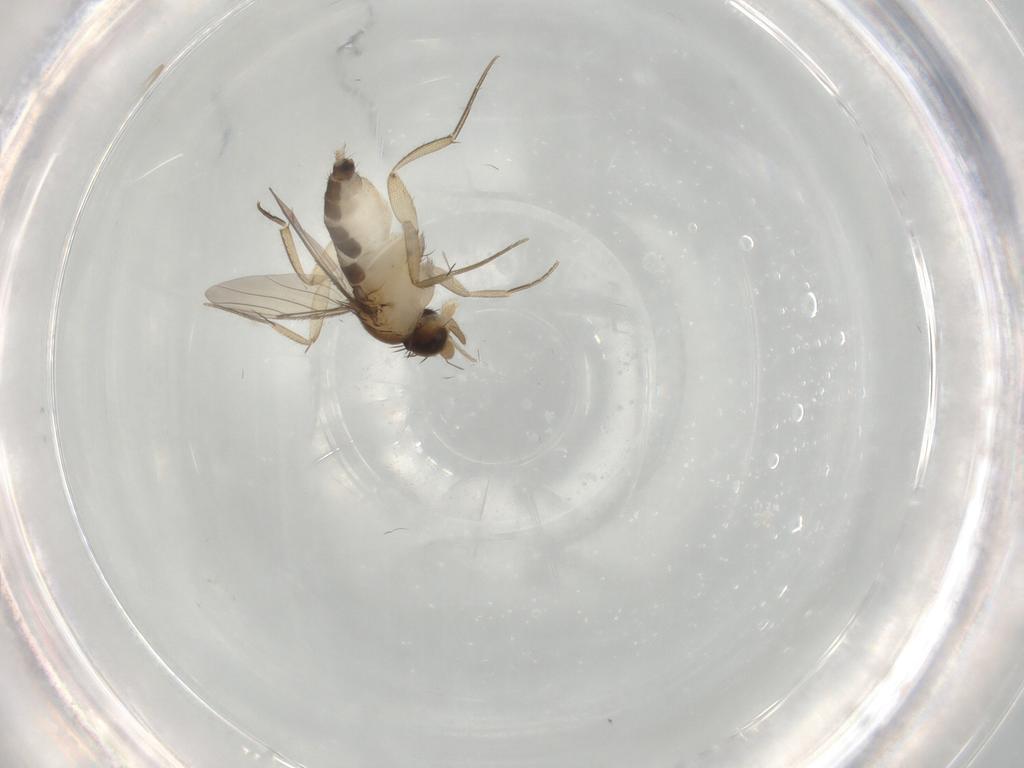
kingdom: Animalia
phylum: Arthropoda
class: Insecta
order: Diptera
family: Phoridae
